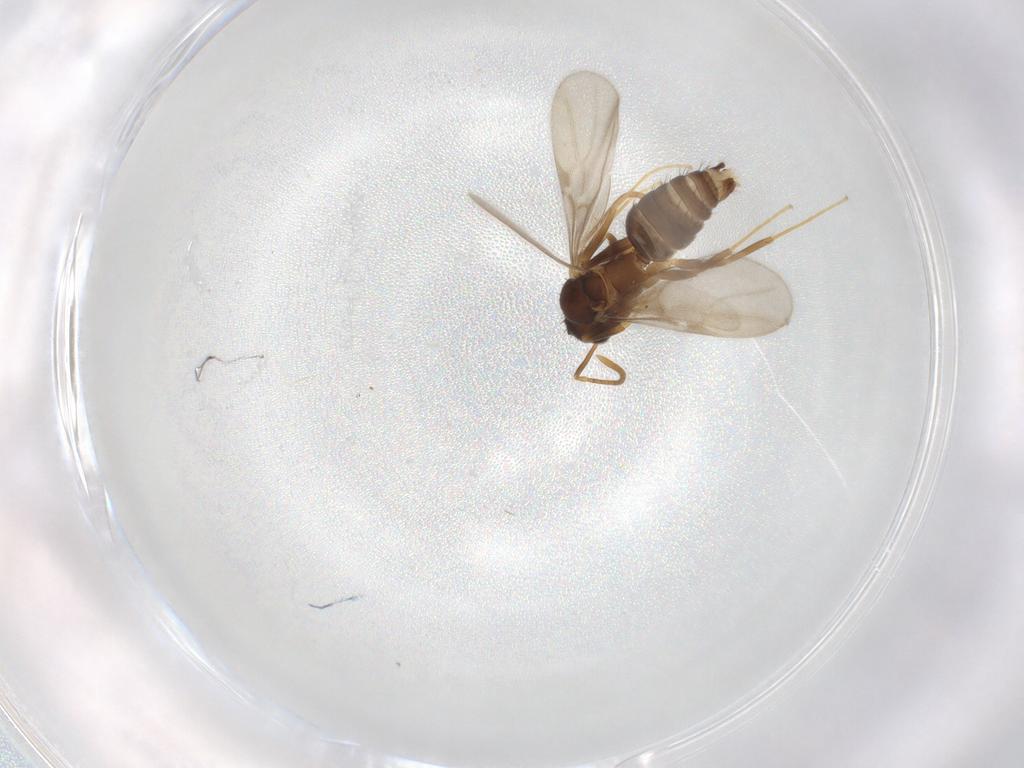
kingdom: Animalia
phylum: Arthropoda
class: Insecta
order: Hymenoptera
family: Formicidae
